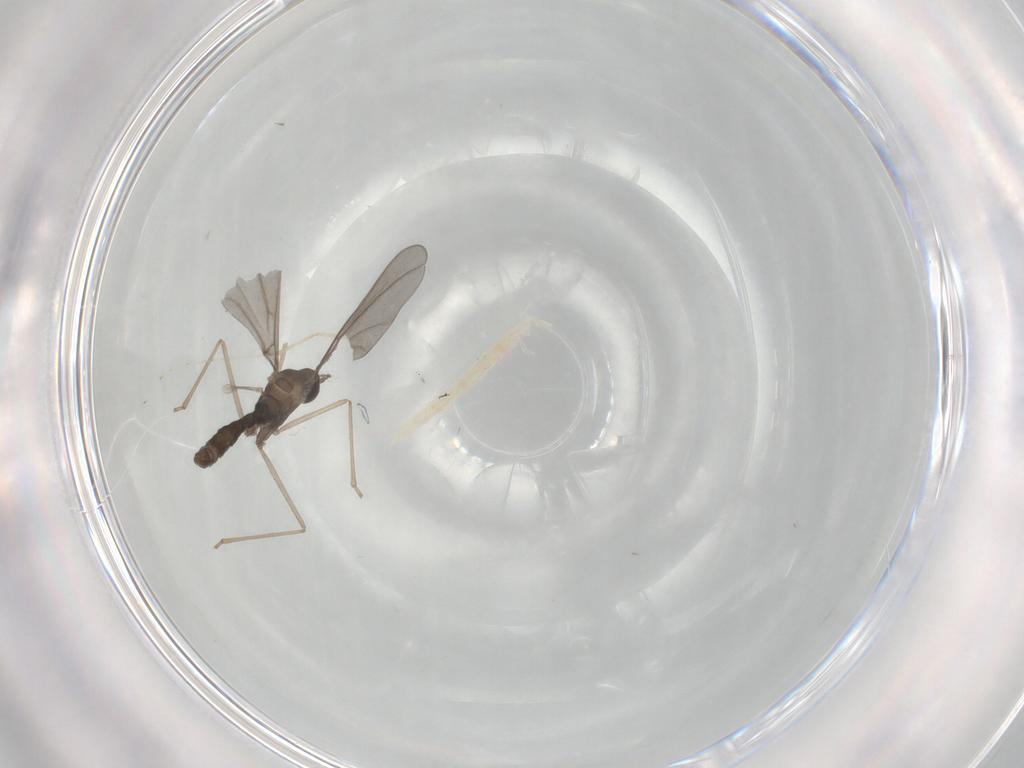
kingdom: Animalia
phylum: Arthropoda
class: Insecta
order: Diptera
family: Cecidomyiidae
